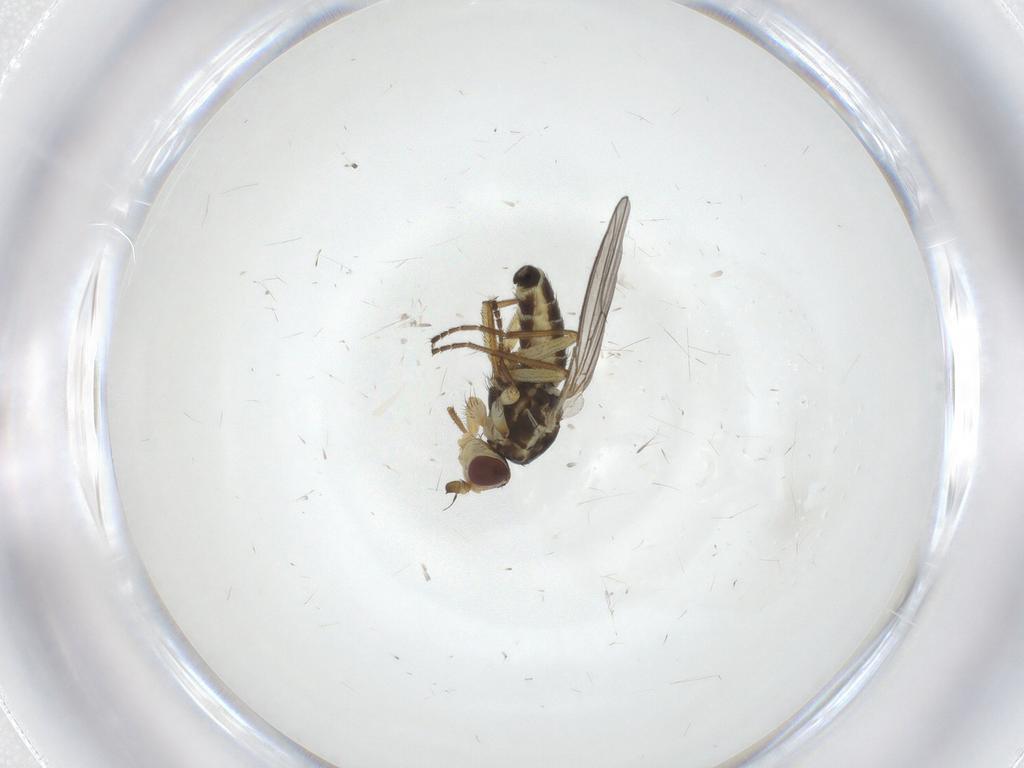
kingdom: Animalia
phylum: Arthropoda
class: Insecta
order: Diptera
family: Agromyzidae
